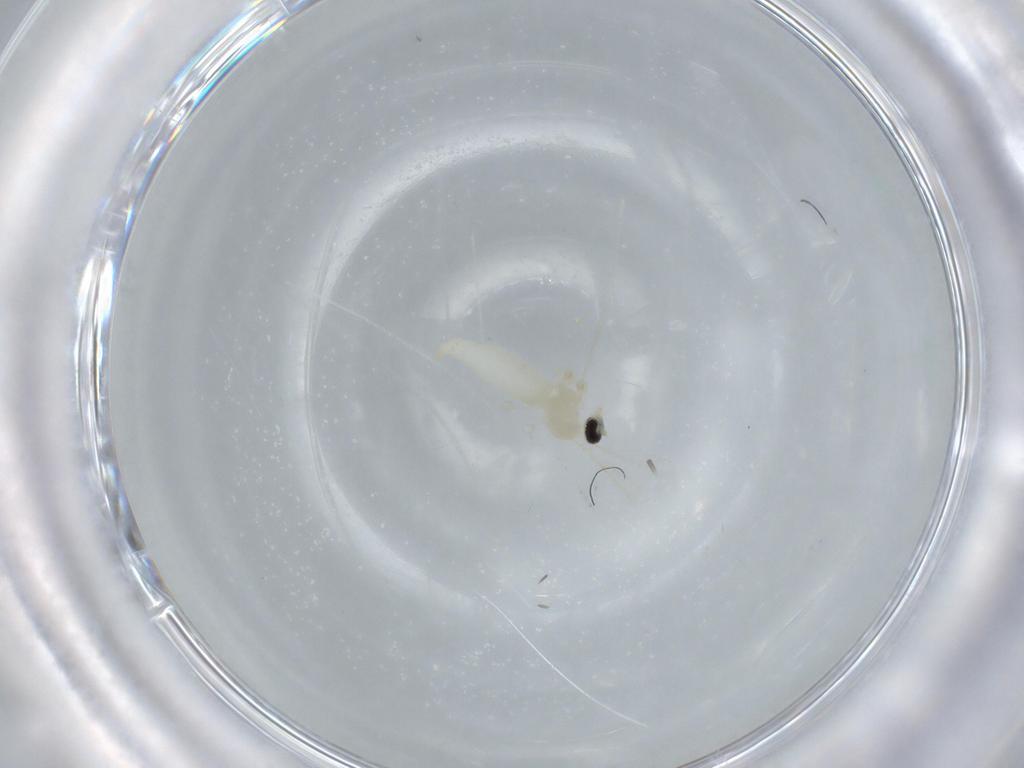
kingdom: Animalia
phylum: Arthropoda
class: Insecta
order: Diptera
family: Cecidomyiidae
